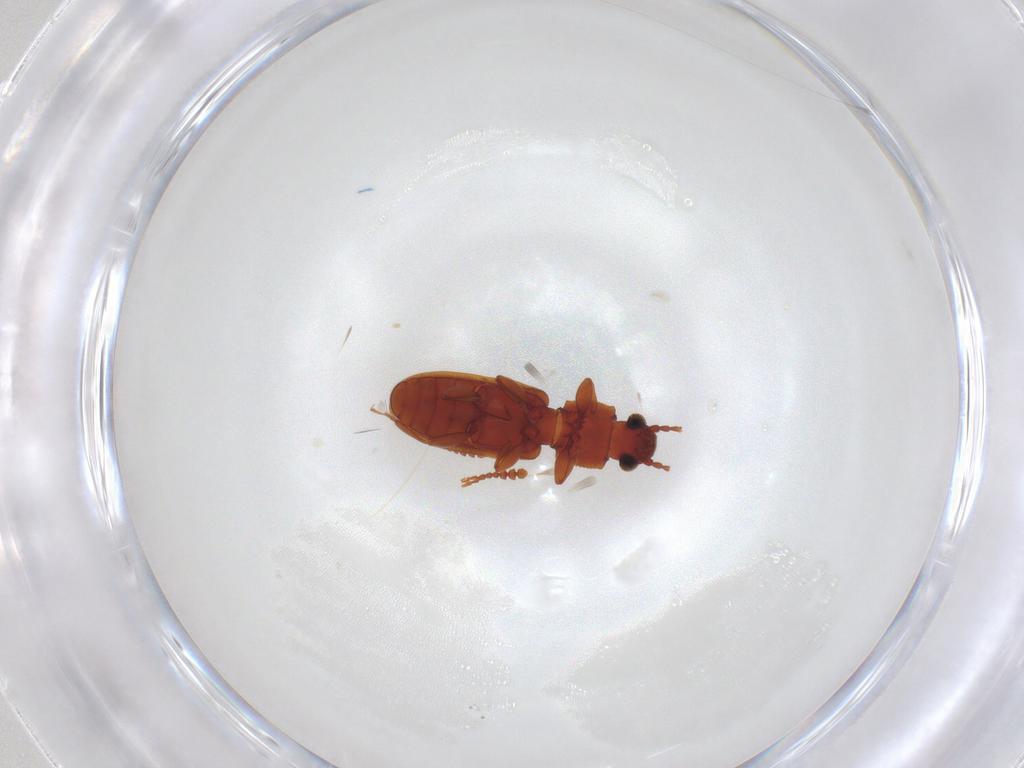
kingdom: Animalia
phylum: Arthropoda
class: Insecta
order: Coleoptera
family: Silvanidae
